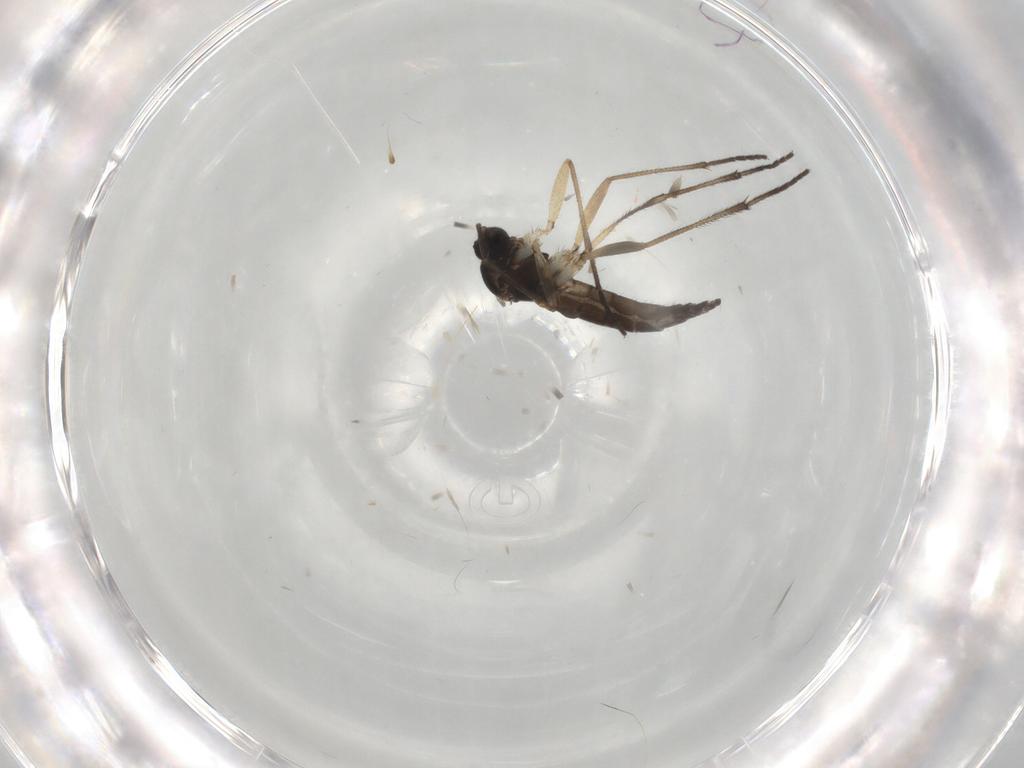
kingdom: Animalia
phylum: Arthropoda
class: Insecta
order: Diptera
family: Sciaridae
